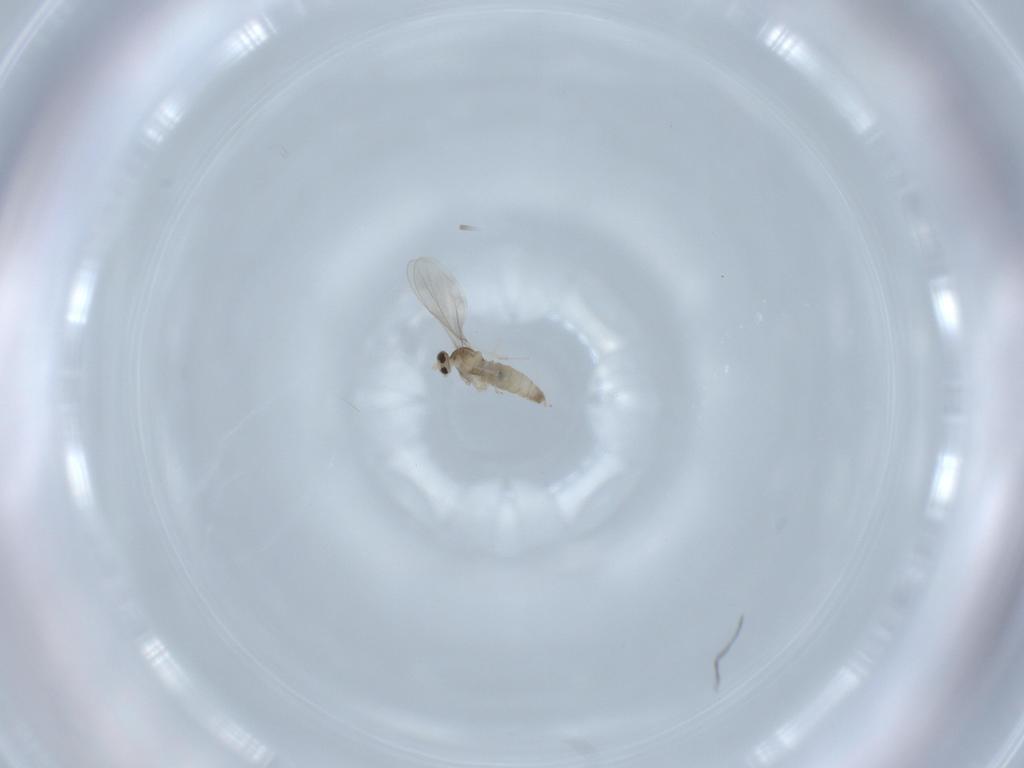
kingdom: Animalia
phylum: Arthropoda
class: Insecta
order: Diptera
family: Cecidomyiidae
